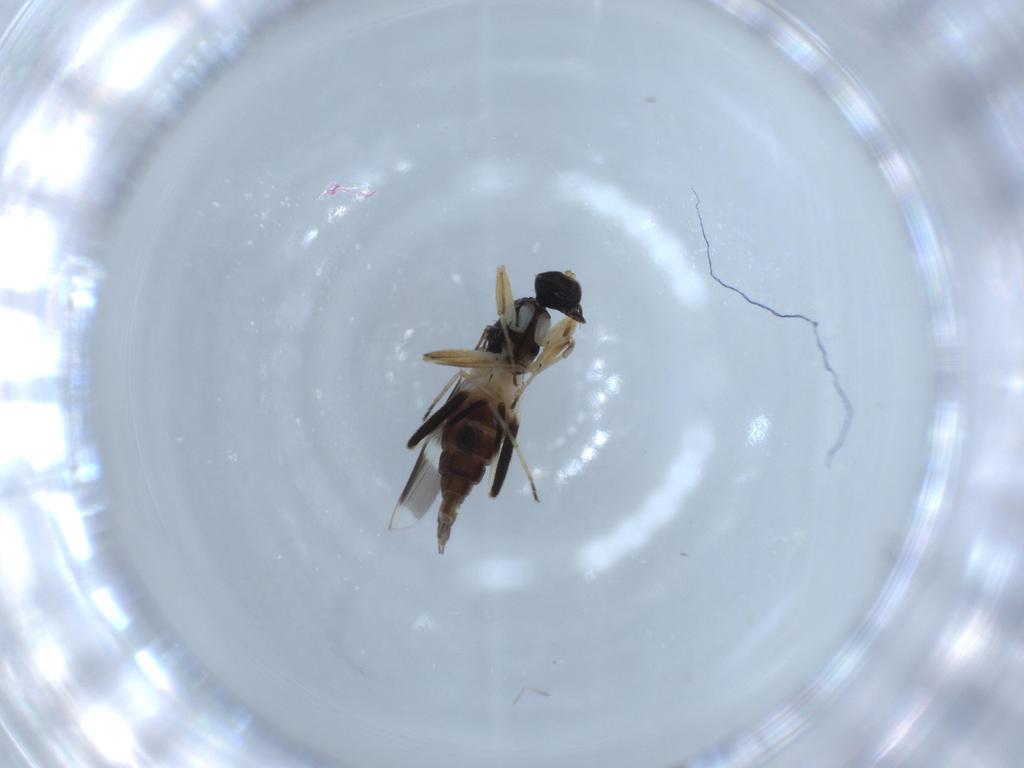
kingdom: Animalia
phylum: Arthropoda
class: Insecta
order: Diptera
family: Hybotidae
